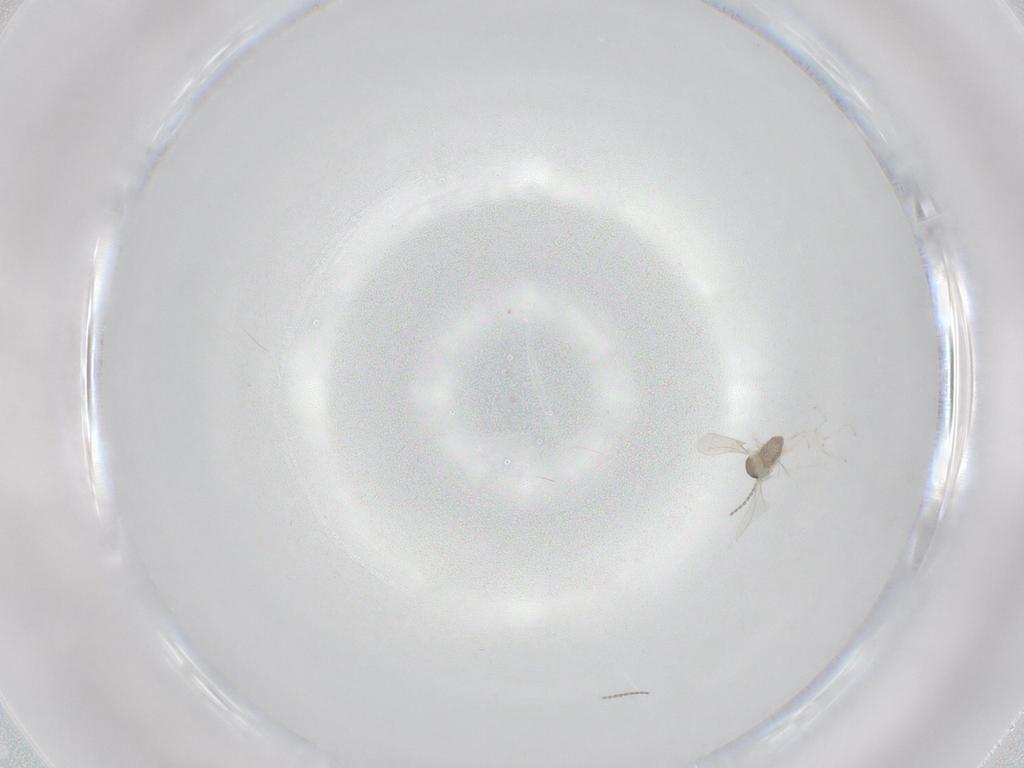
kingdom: Animalia
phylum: Arthropoda
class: Insecta
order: Diptera
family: Cecidomyiidae
